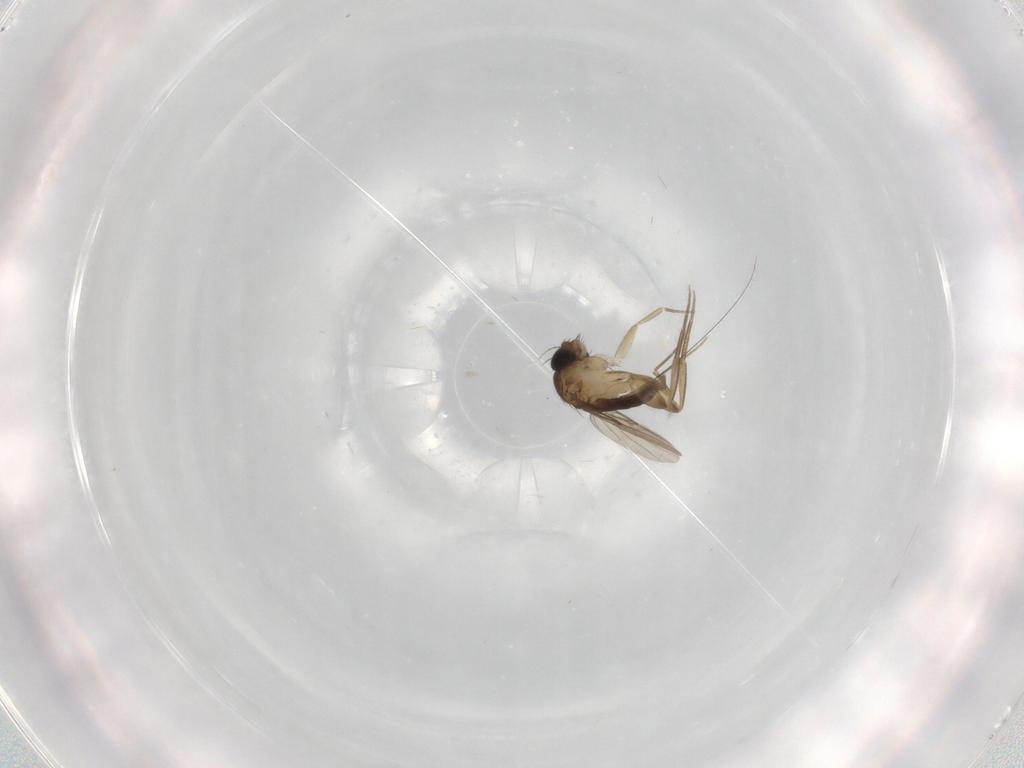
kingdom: Animalia
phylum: Arthropoda
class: Insecta
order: Diptera
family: Phoridae
